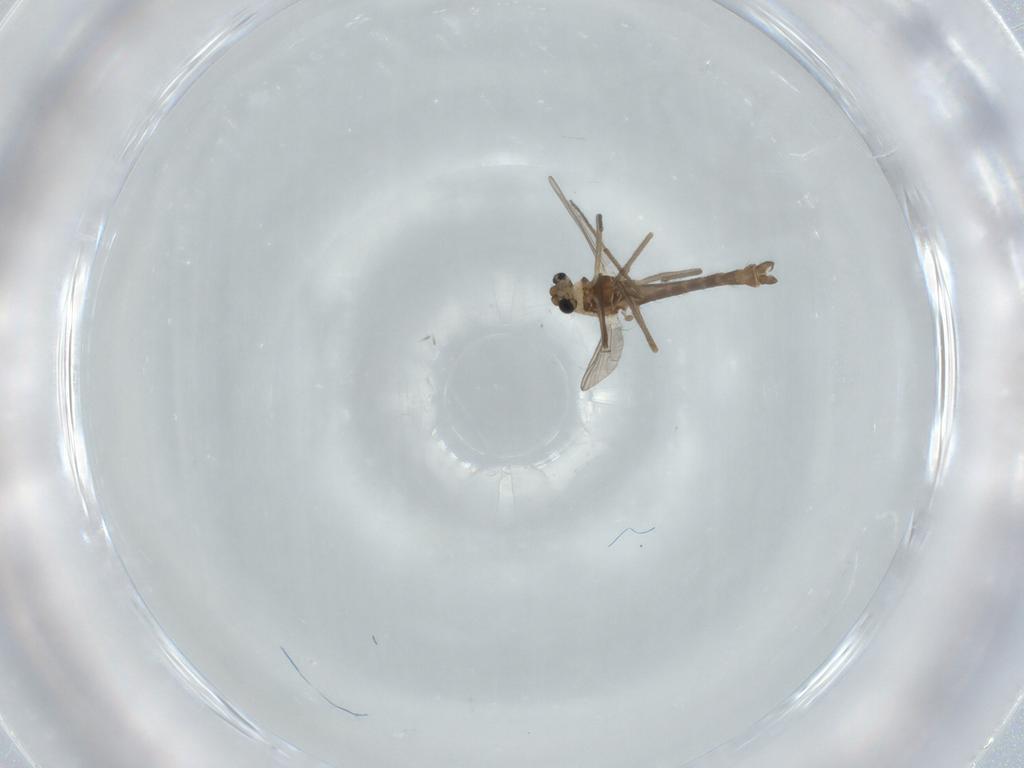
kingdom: Animalia
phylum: Arthropoda
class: Insecta
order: Diptera
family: Chironomidae
